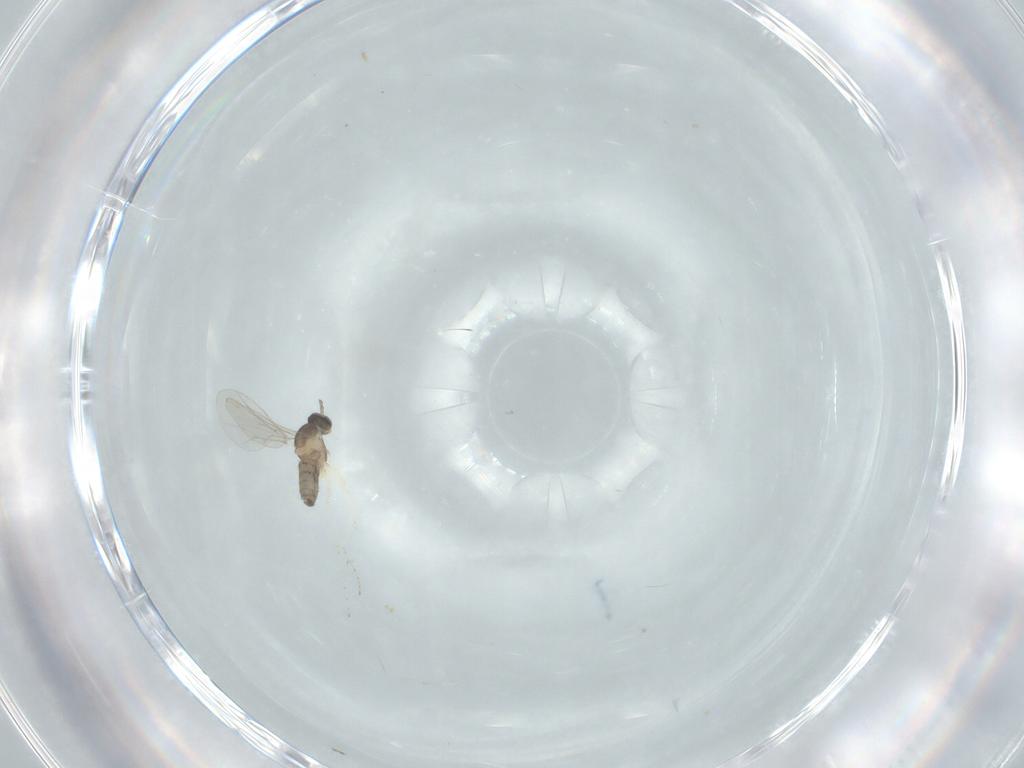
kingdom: Animalia
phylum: Arthropoda
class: Insecta
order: Diptera
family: Cecidomyiidae
